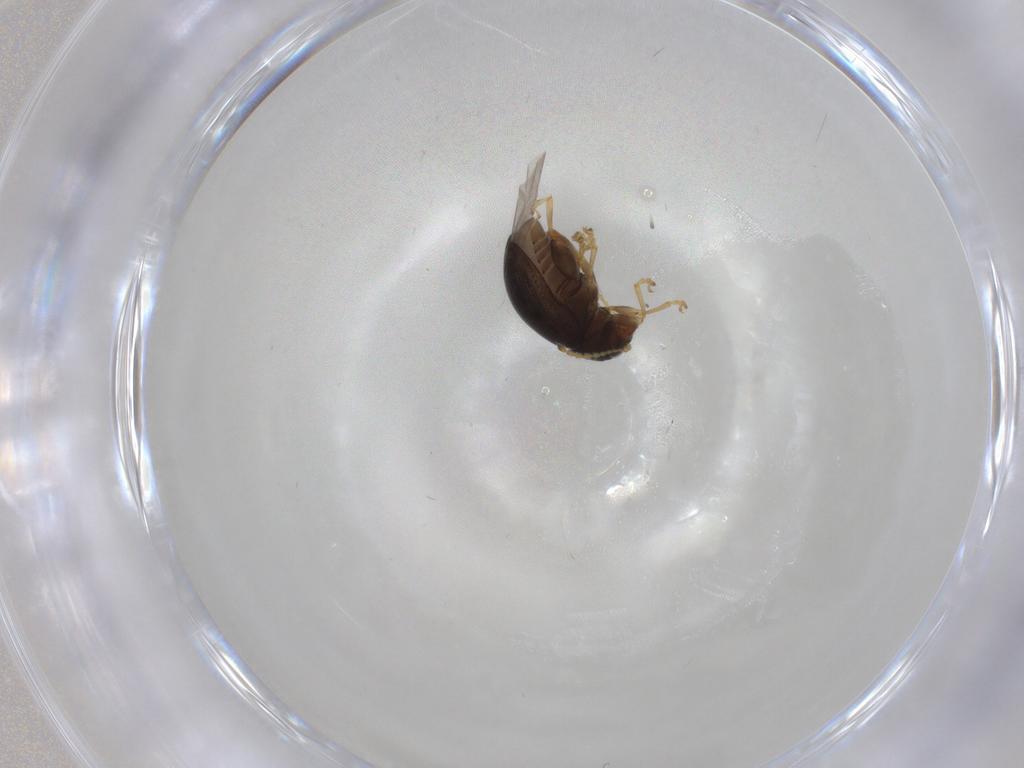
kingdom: Animalia
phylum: Arthropoda
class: Insecta
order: Coleoptera
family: Chrysomelidae
